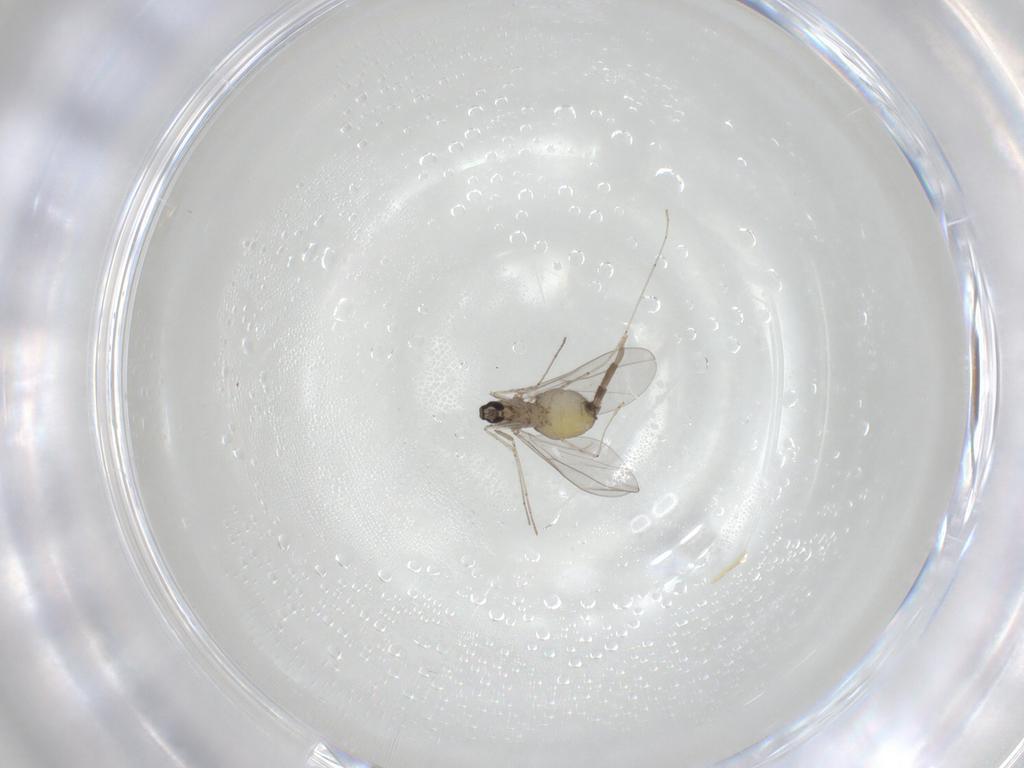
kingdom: Animalia
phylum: Arthropoda
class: Insecta
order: Diptera
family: Cecidomyiidae
